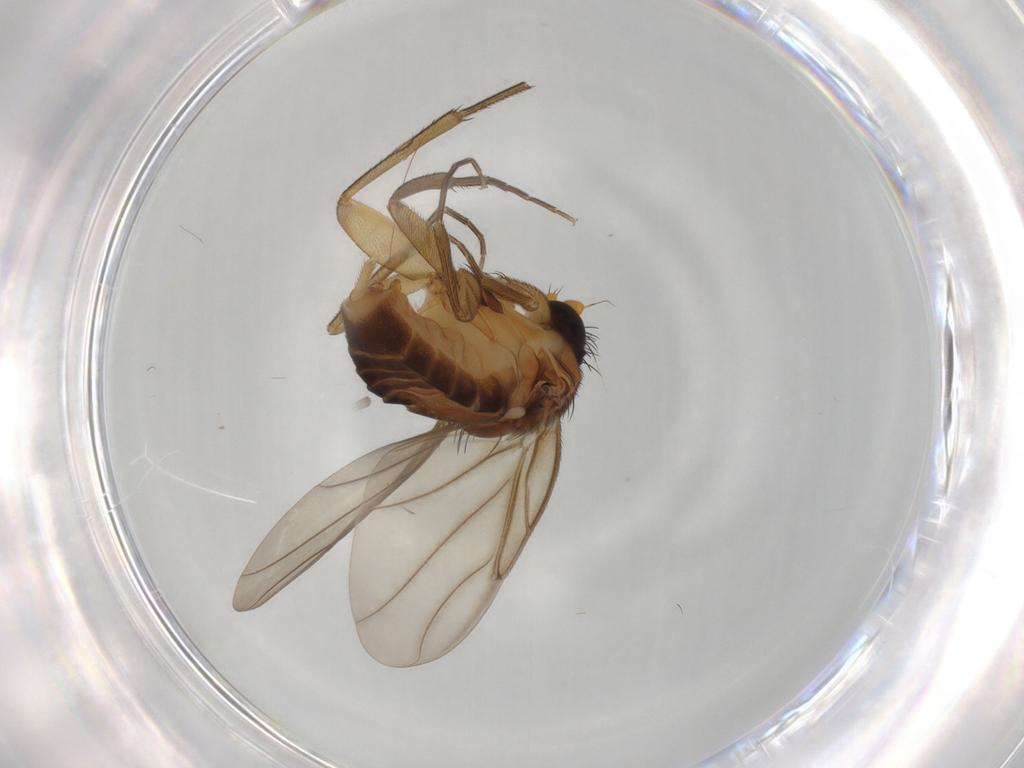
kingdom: Animalia
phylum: Arthropoda
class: Insecta
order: Diptera
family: Phoridae
